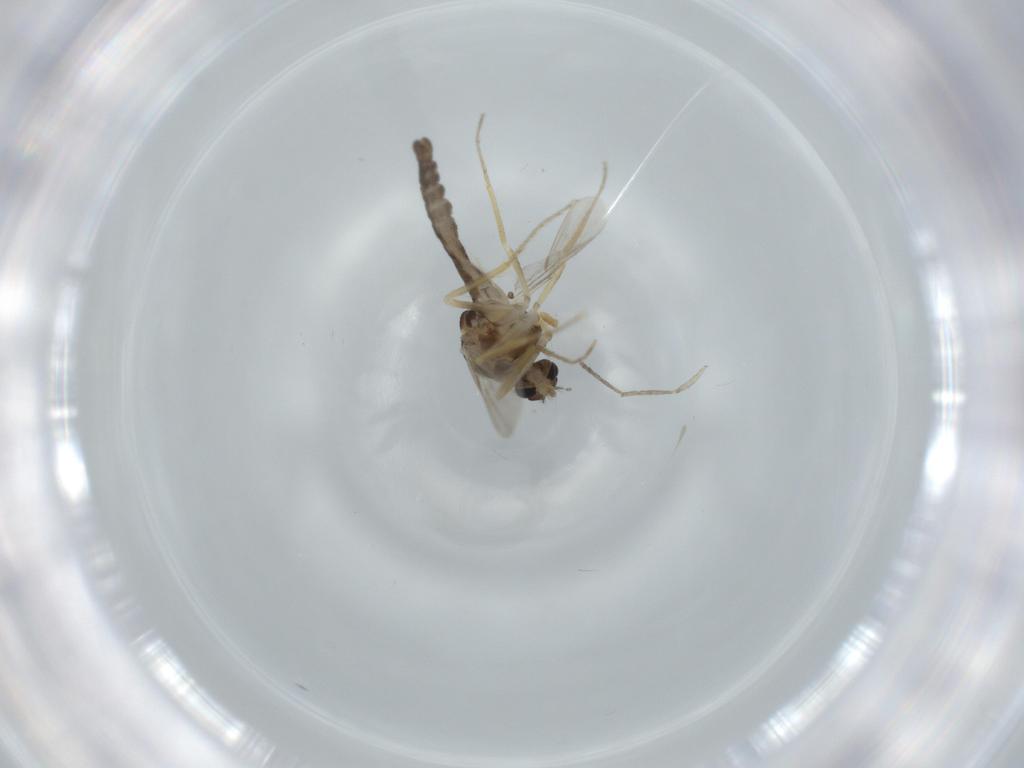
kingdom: Animalia
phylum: Arthropoda
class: Insecta
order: Diptera
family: Ceratopogonidae
